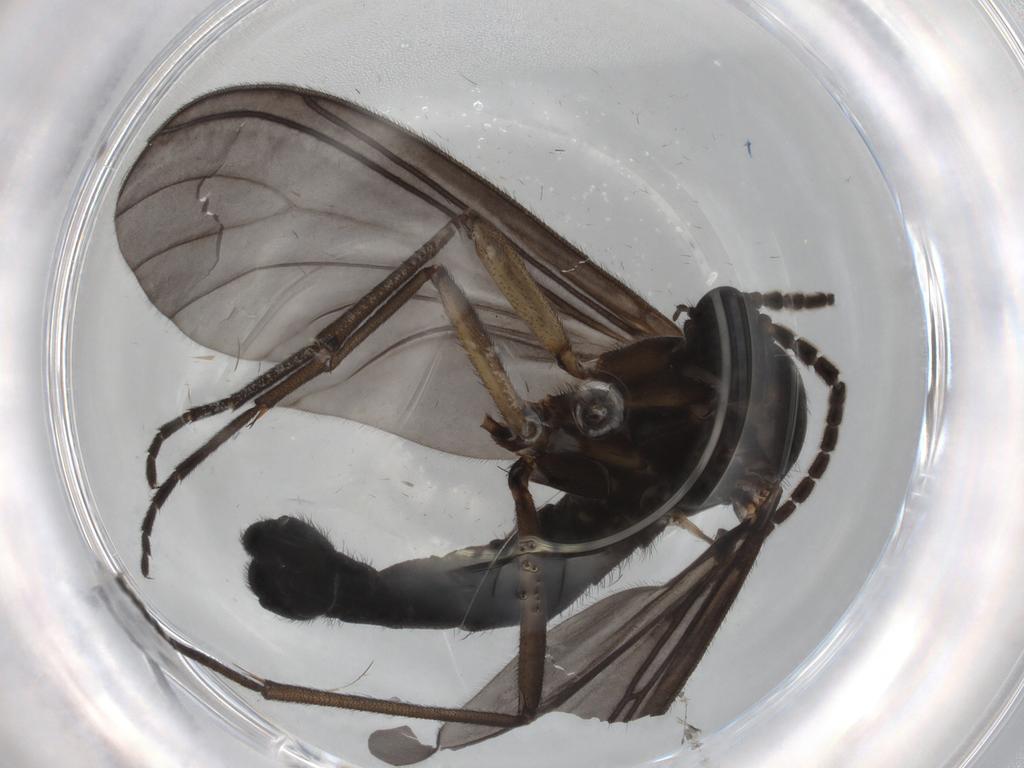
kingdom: Animalia
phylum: Arthropoda
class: Insecta
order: Diptera
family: Sciaridae
